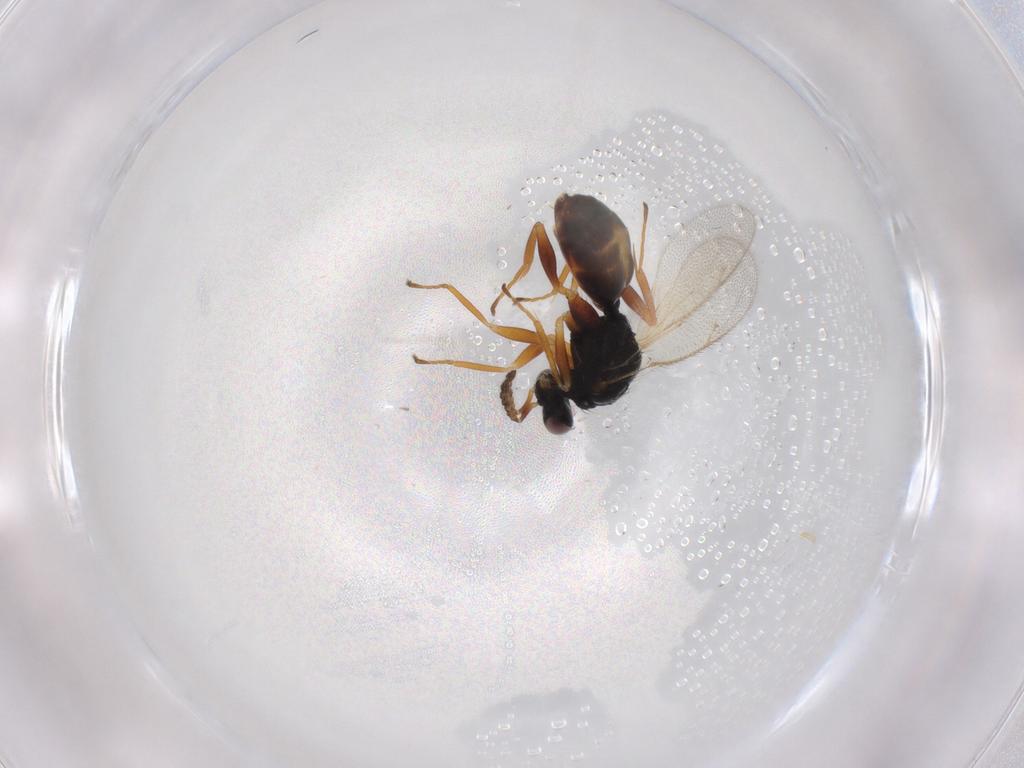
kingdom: Animalia
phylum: Arthropoda
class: Insecta
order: Hymenoptera
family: Eulophidae
